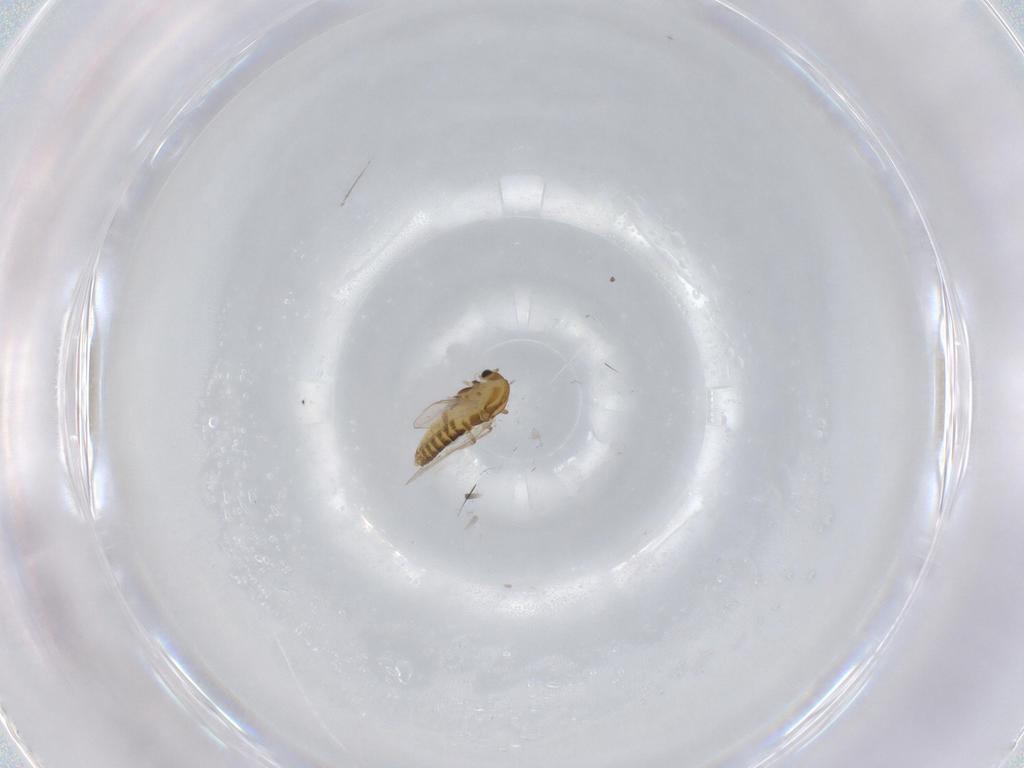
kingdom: Animalia
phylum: Arthropoda
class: Insecta
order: Diptera
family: Chironomidae
